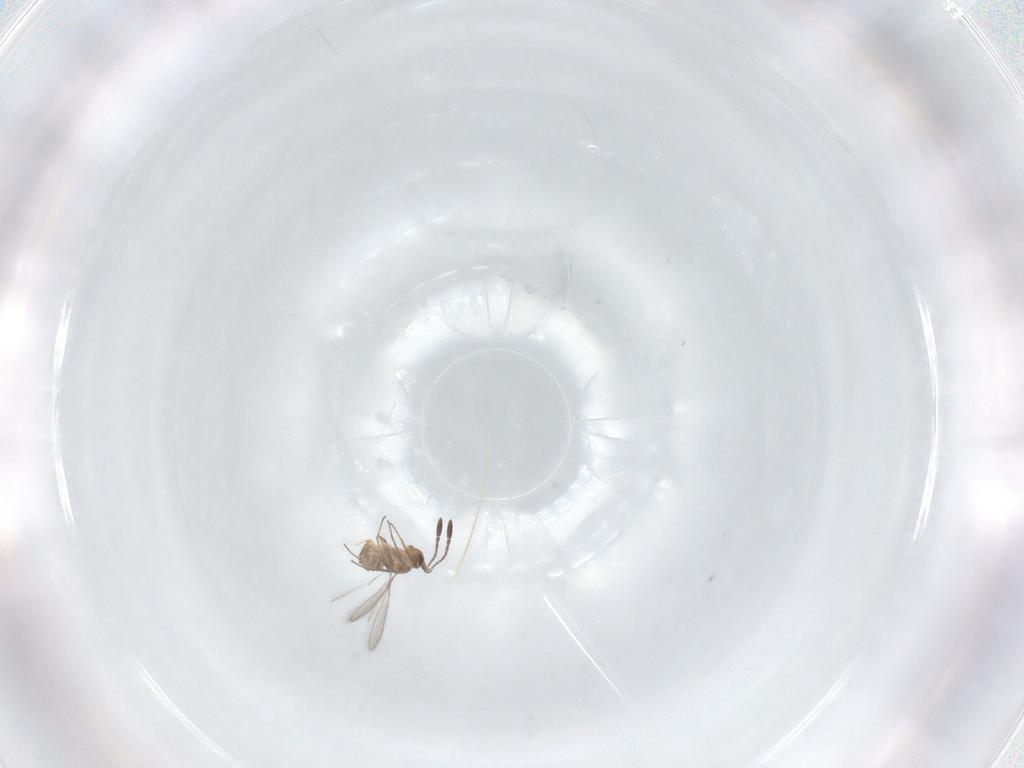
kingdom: Animalia
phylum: Arthropoda
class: Insecta
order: Hymenoptera
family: Mymaridae
